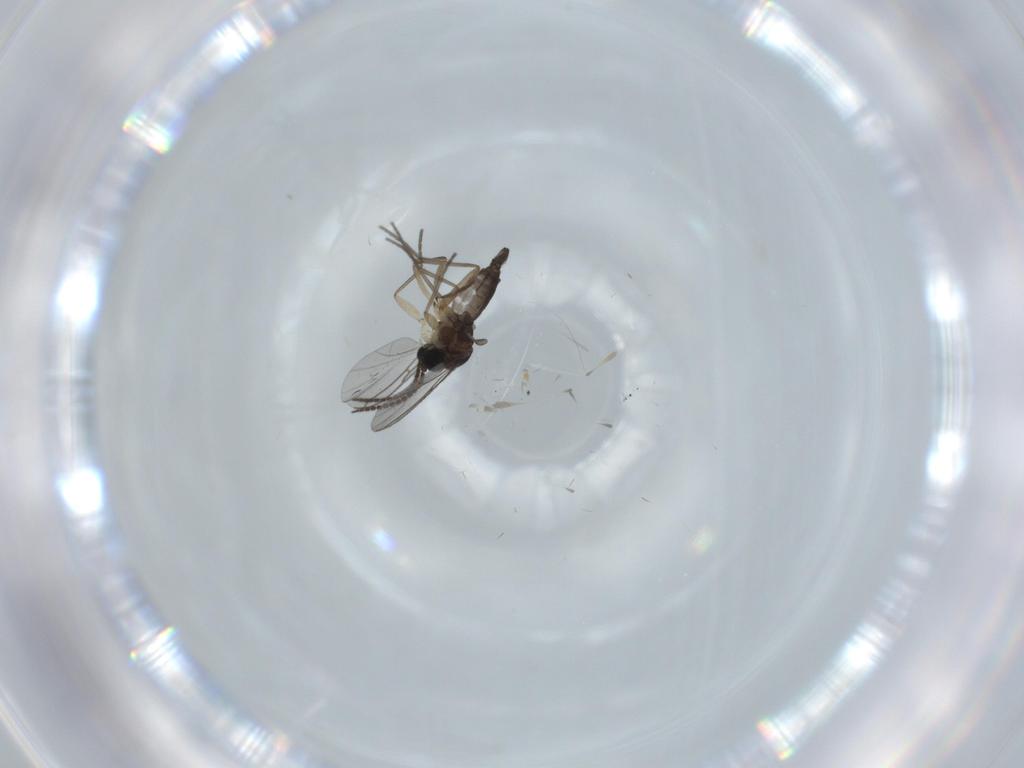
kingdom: Animalia
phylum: Arthropoda
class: Insecta
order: Diptera
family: Sciaridae
